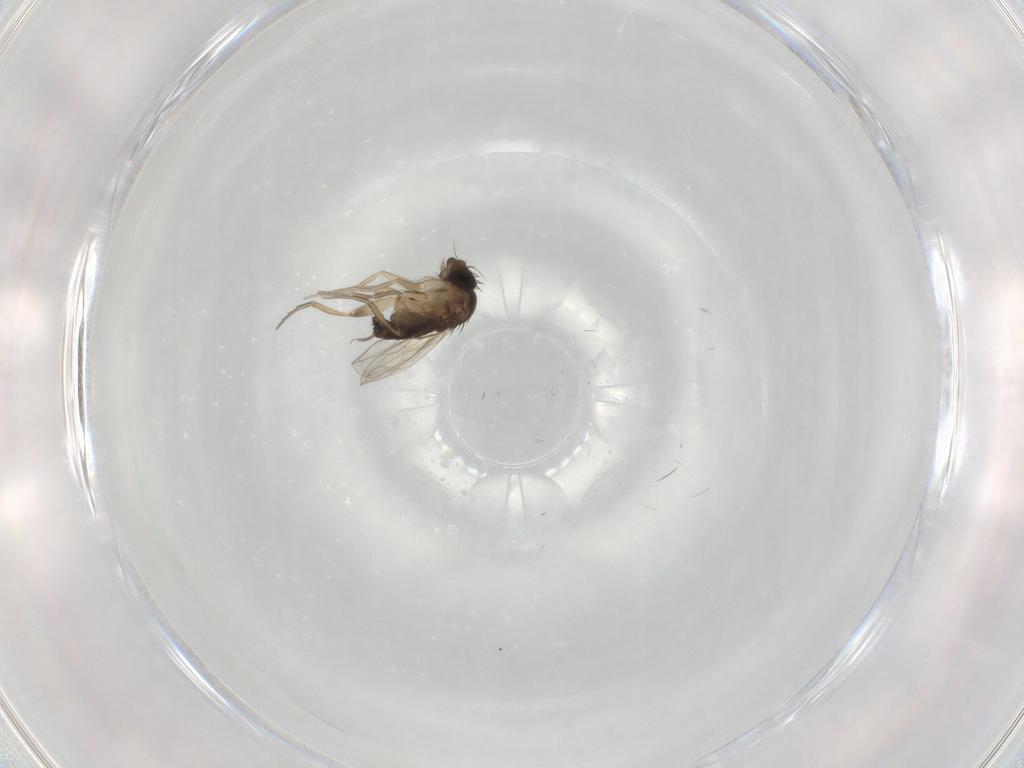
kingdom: Animalia
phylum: Arthropoda
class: Insecta
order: Diptera
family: Phoridae
